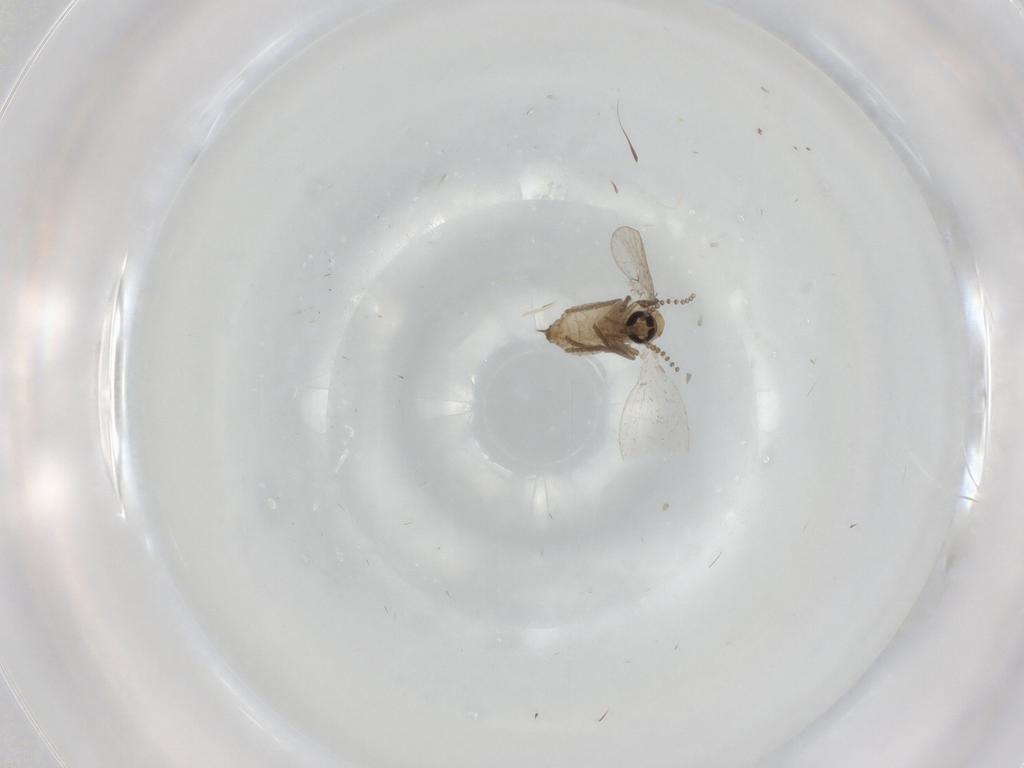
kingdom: Animalia
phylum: Arthropoda
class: Insecta
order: Diptera
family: Psychodidae
